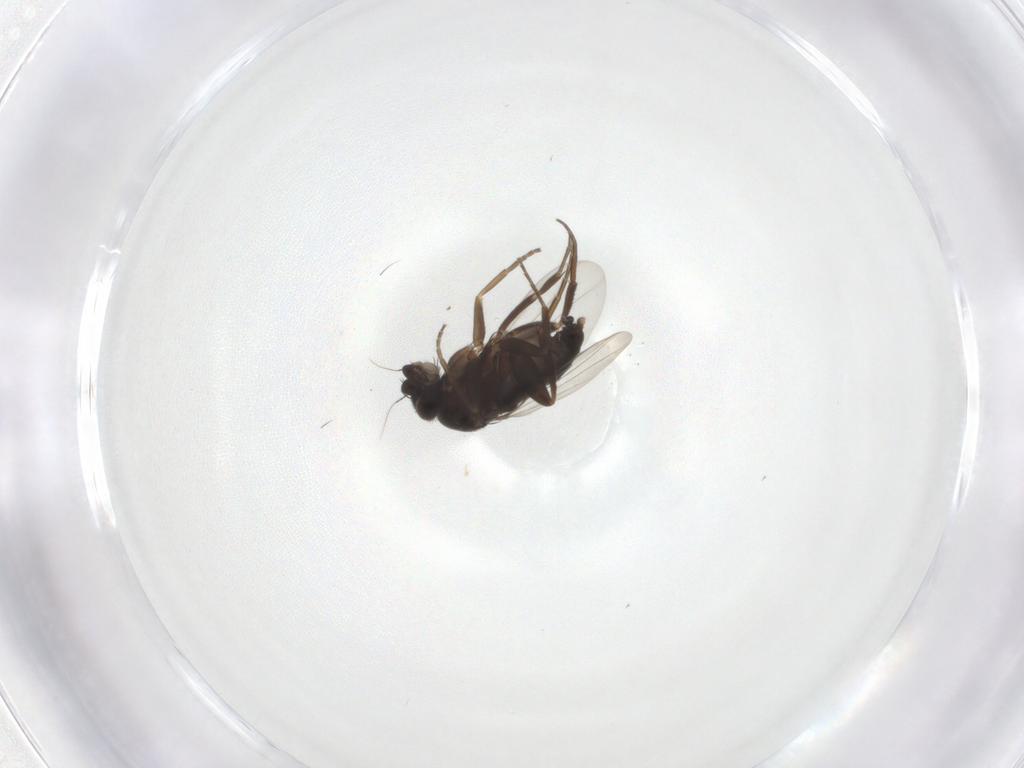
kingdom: Animalia
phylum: Arthropoda
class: Insecta
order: Diptera
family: Phoridae
